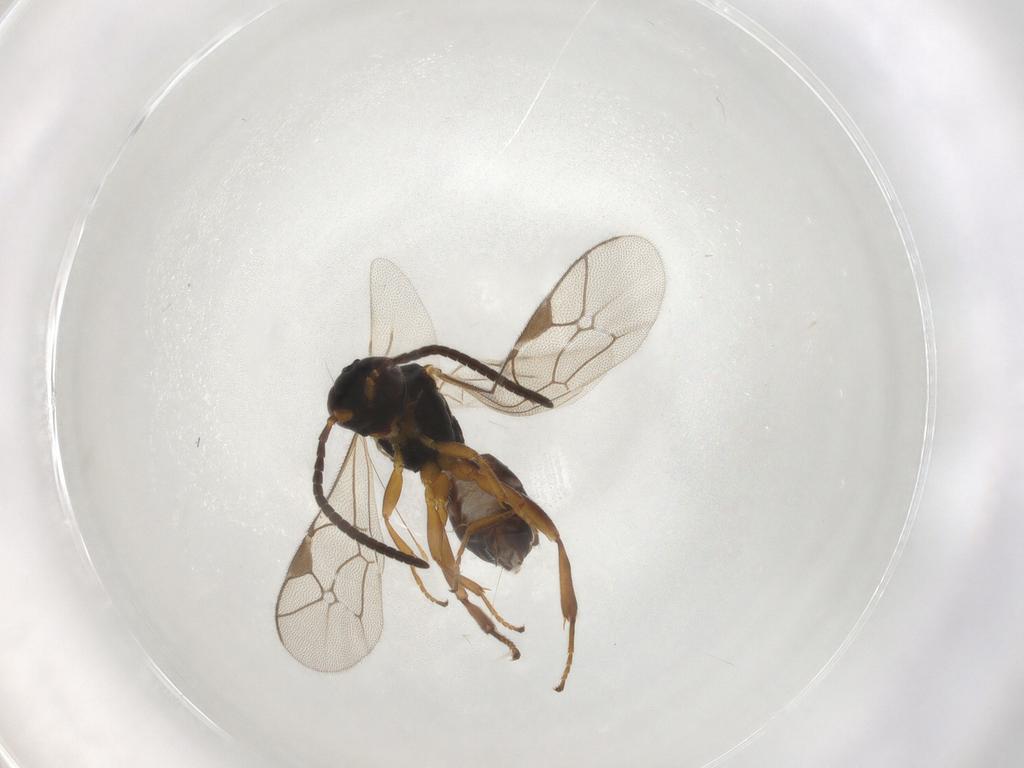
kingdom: Animalia
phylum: Arthropoda
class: Insecta
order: Hymenoptera
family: Ichneumonidae
